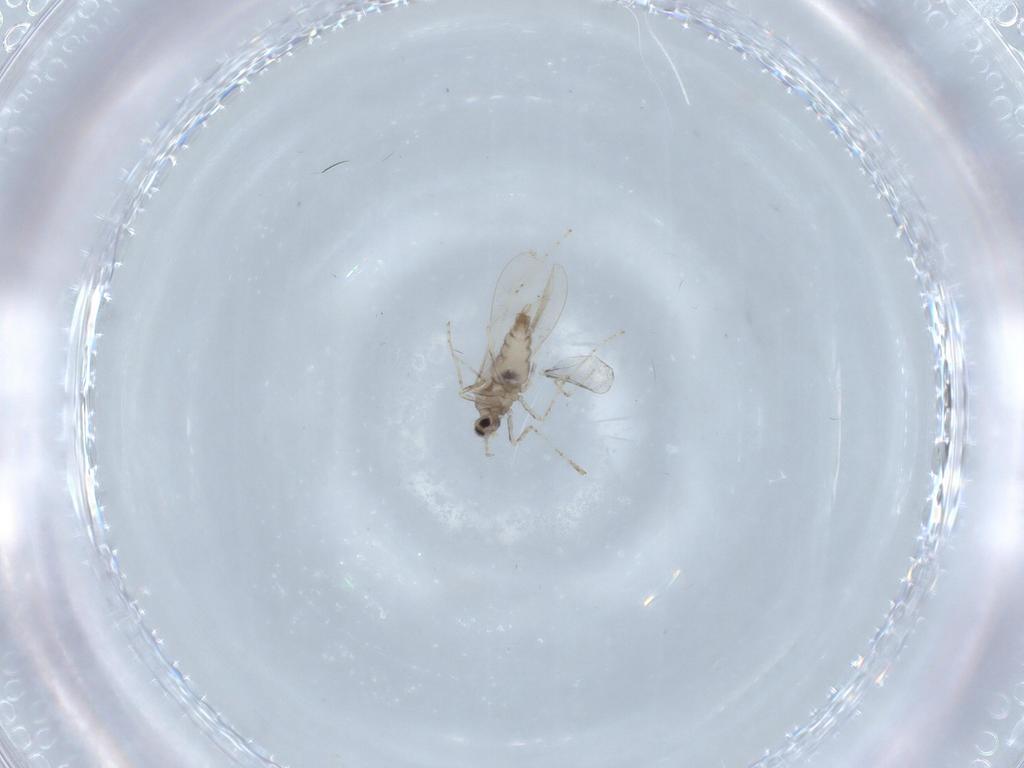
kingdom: Animalia
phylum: Arthropoda
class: Insecta
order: Diptera
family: Cecidomyiidae
